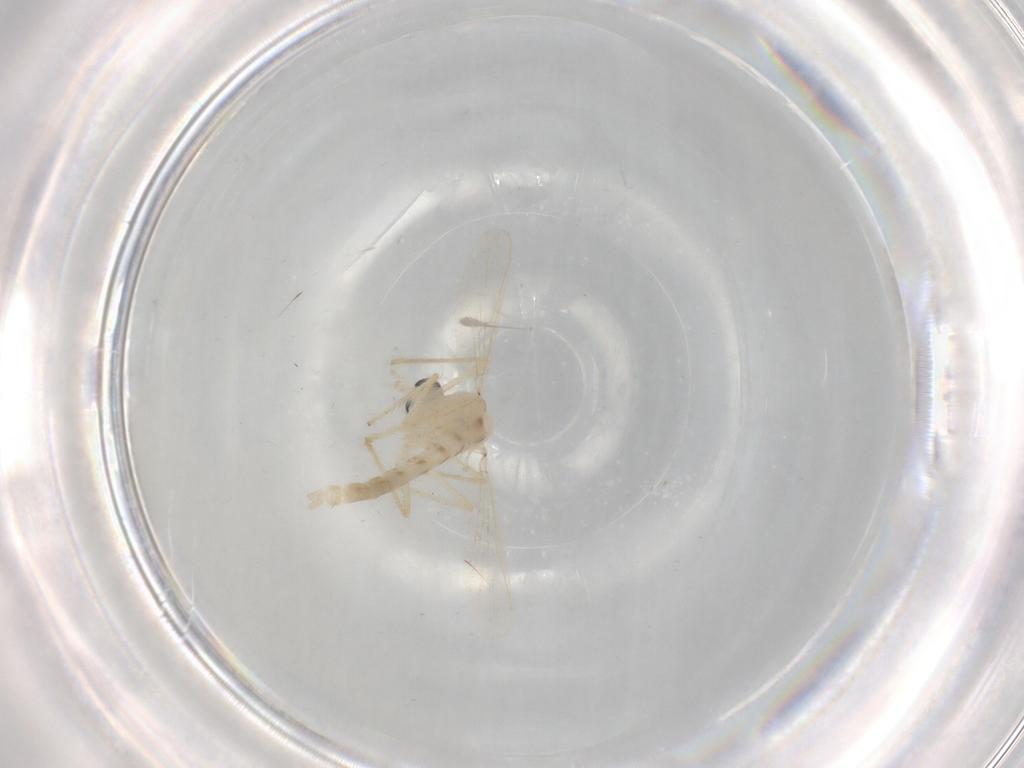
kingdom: Animalia
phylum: Arthropoda
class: Insecta
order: Diptera
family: Chironomidae
